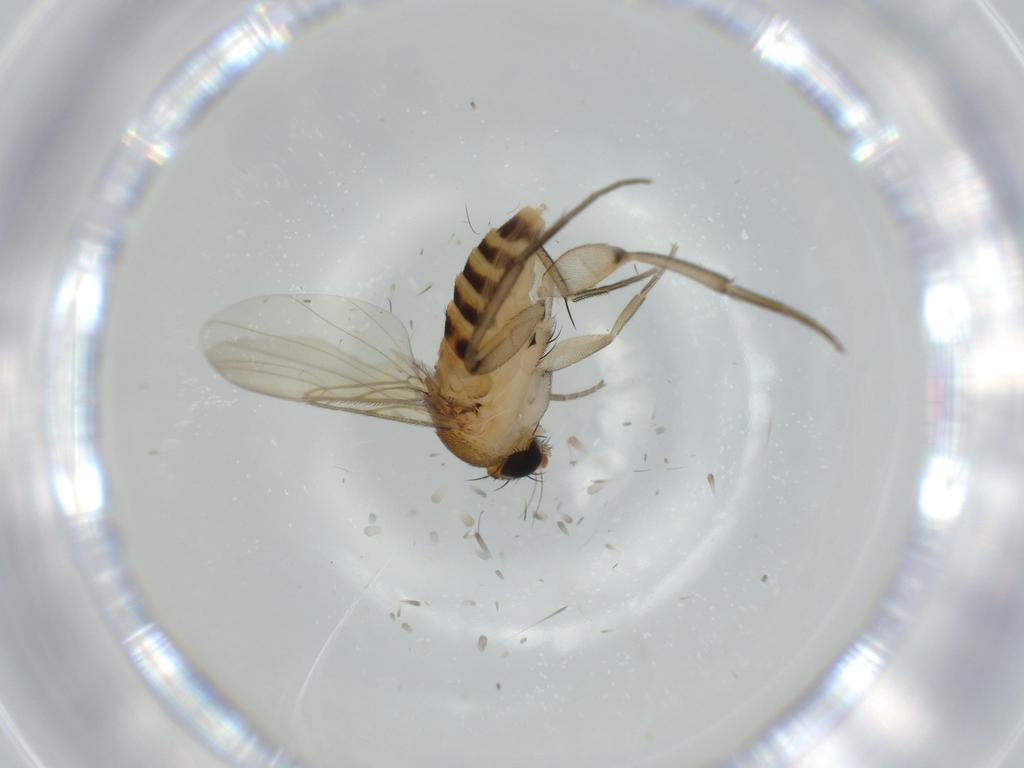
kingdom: Animalia
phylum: Arthropoda
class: Insecta
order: Diptera
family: Phoridae
